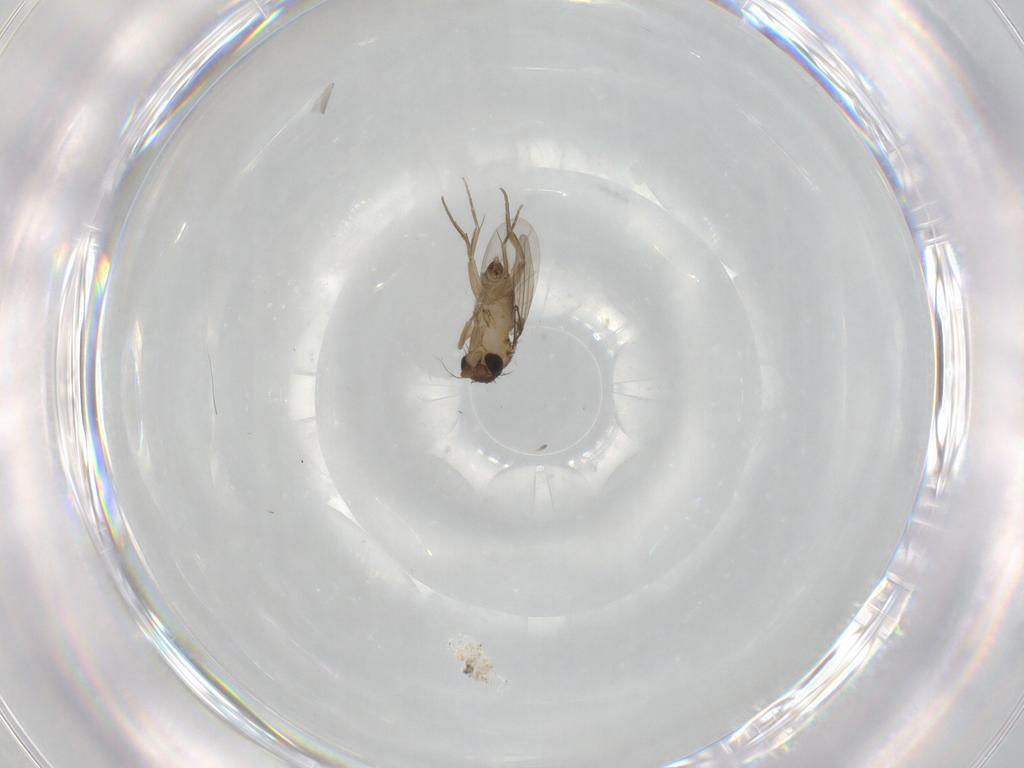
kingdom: Animalia
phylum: Arthropoda
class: Insecta
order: Diptera
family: Phoridae
